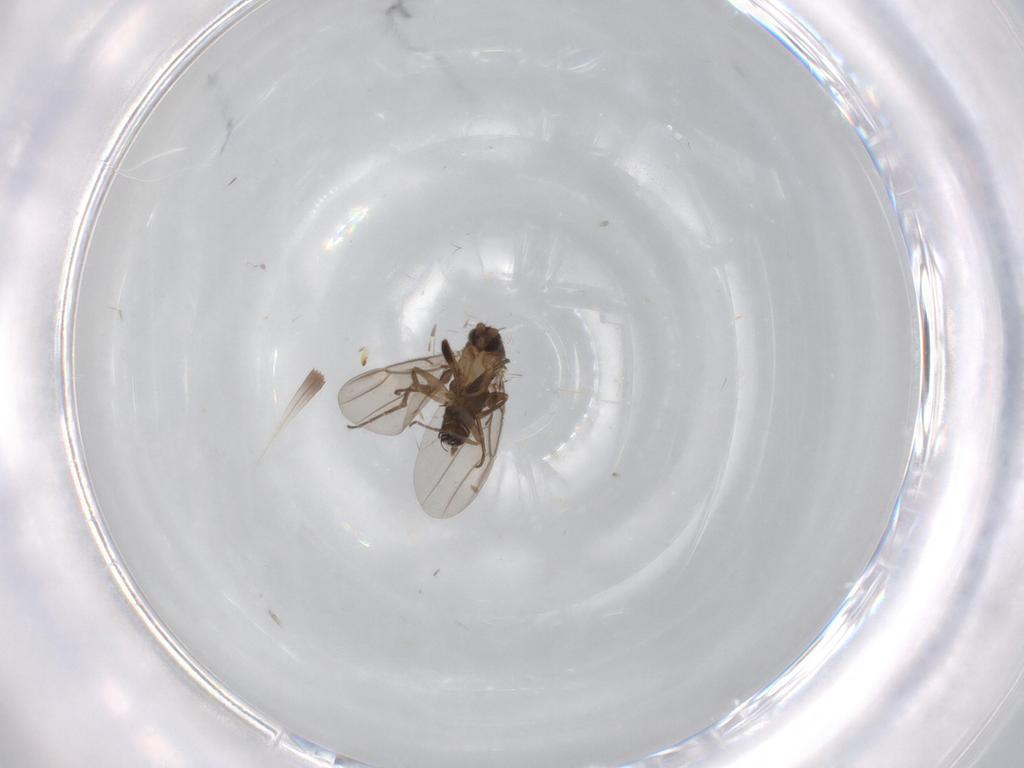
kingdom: Animalia
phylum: Arthropoda
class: Insecta
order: Diptera
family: Phoridae
